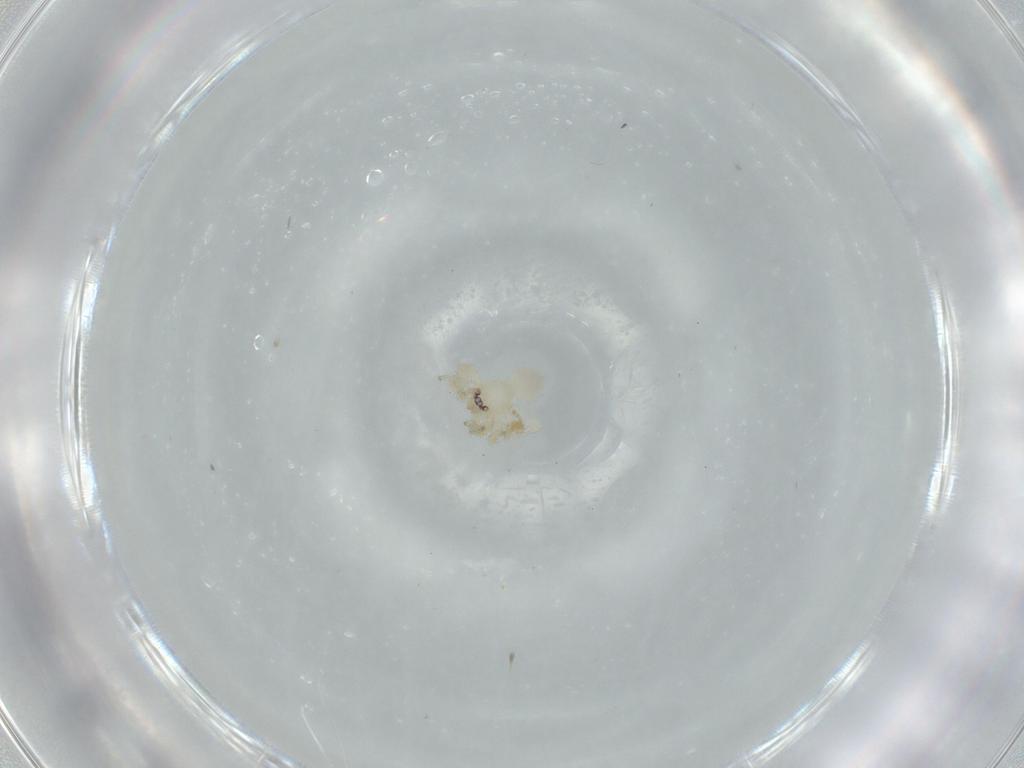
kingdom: Animalia
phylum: Arthropoda
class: Arachnida
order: Araneae
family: Oonopidae
